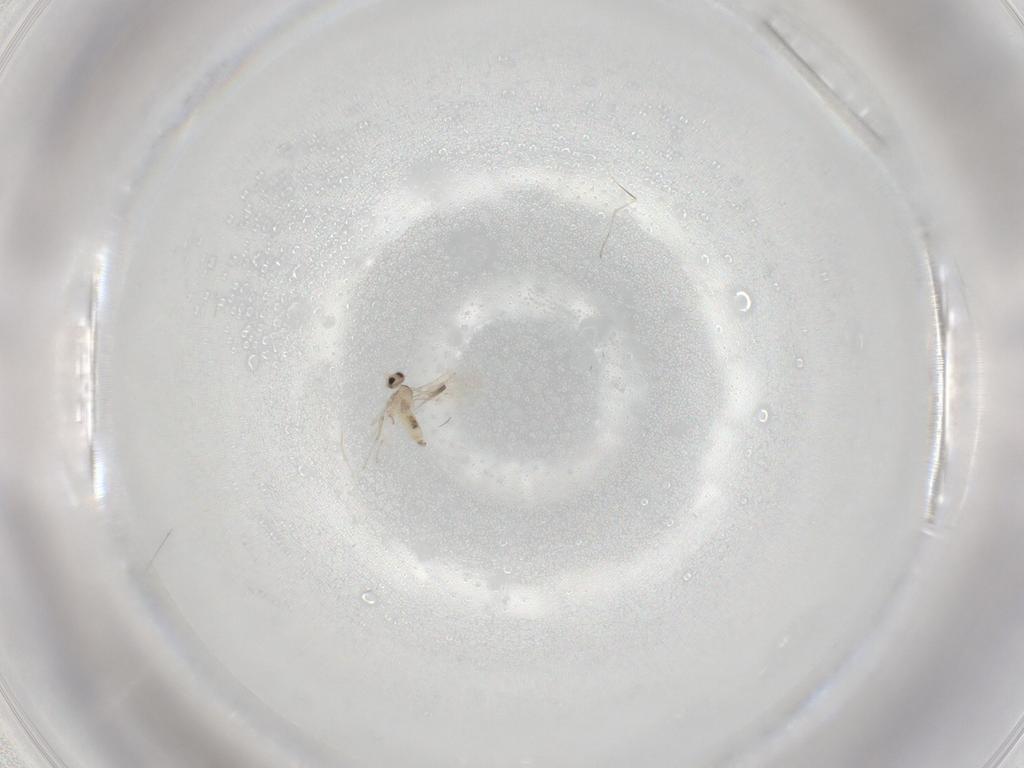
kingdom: Animalia
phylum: Arthropoda
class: Insecta
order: Diptera
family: Cecidomyiidae
